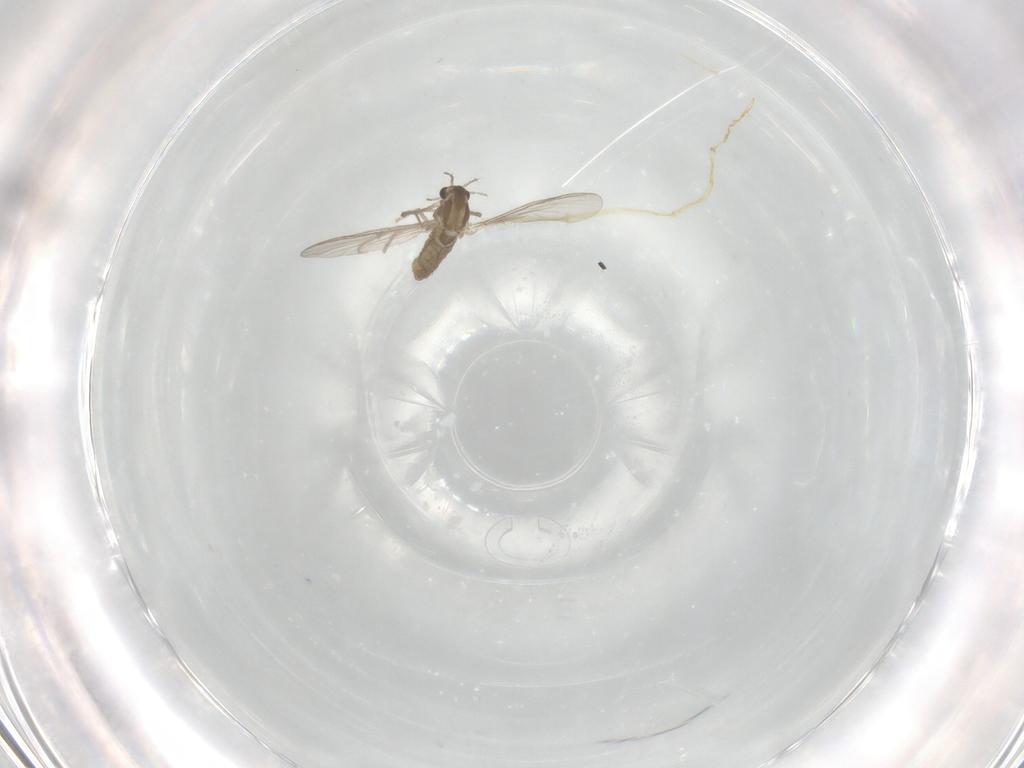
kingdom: Animalia
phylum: Arthropoda
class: Insecta
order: Diptera
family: Chironomidae
